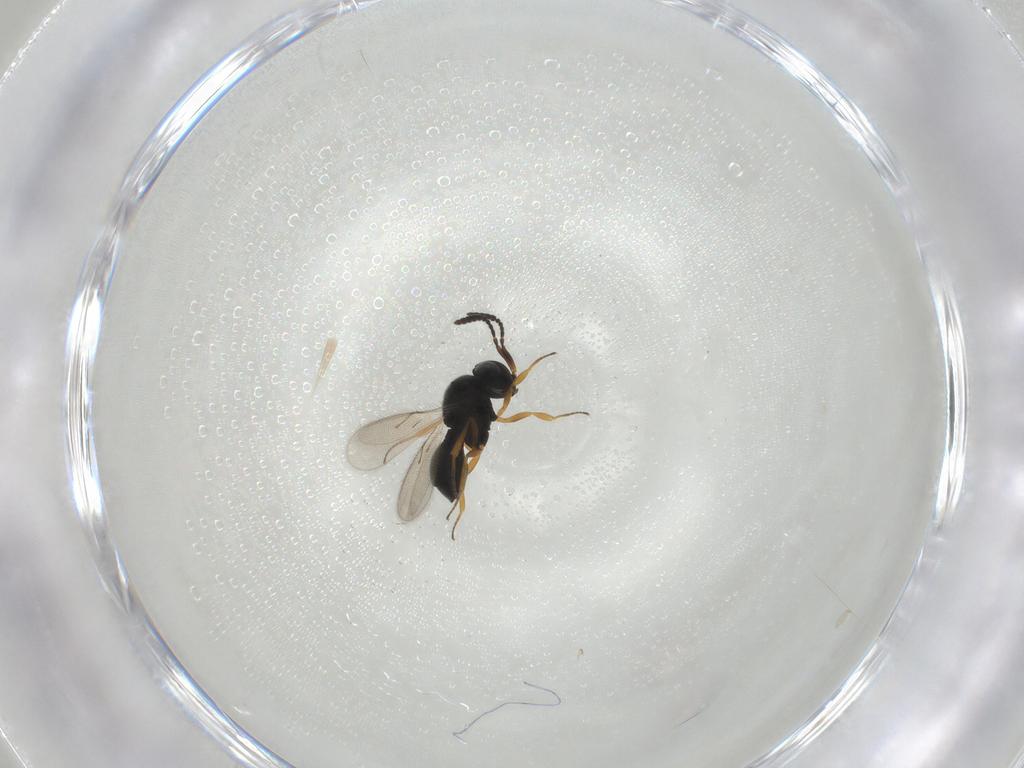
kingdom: Animalia
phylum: Arthropoda
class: Insecta
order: Hymenoptera
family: Scelionidae
